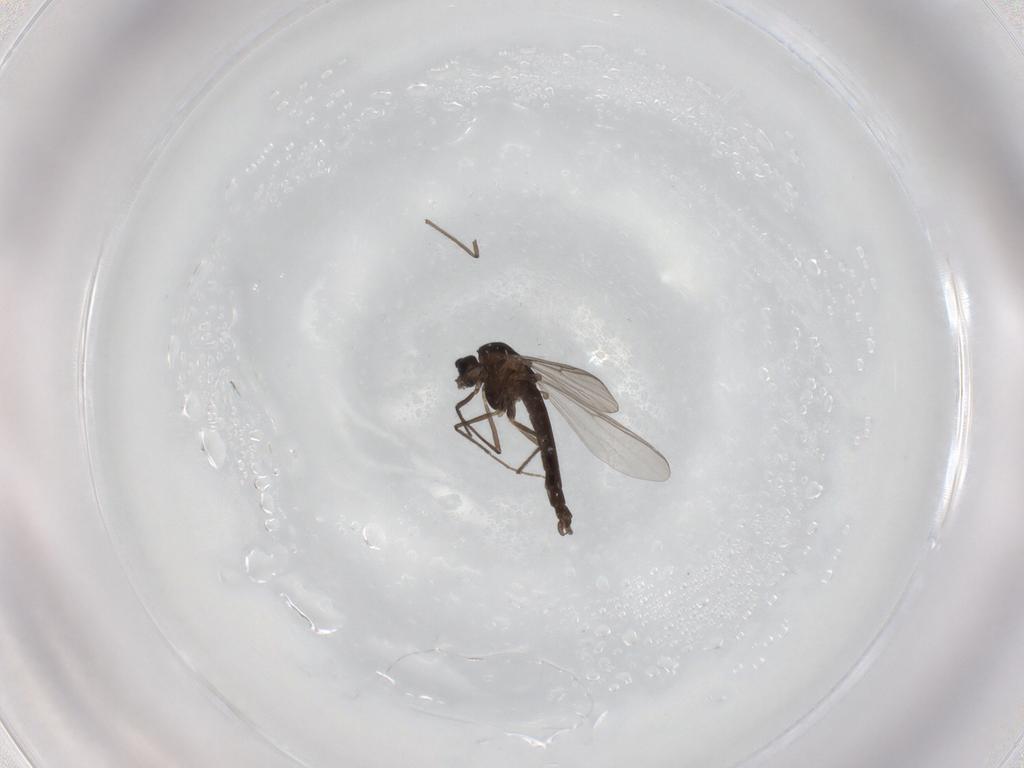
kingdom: Animalia
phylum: Arthropoda
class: Insecta
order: Diptera
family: Chironomidae
